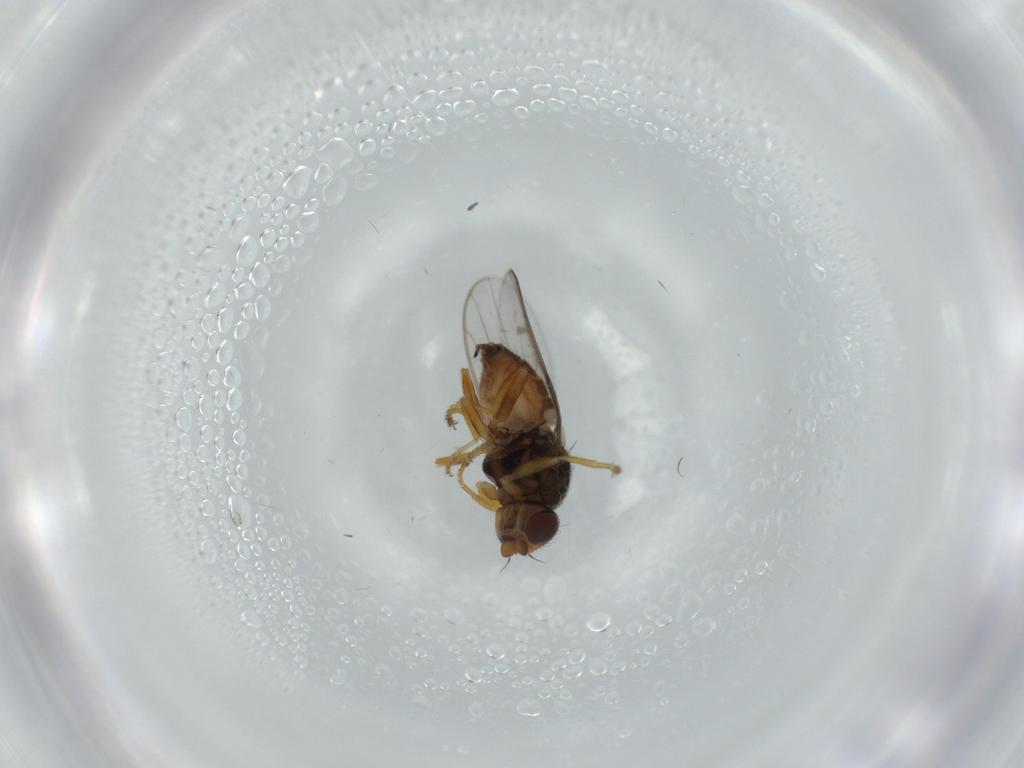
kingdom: Animalia
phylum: Arthropoda
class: Insecta
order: Diptera
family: Chloropidae
